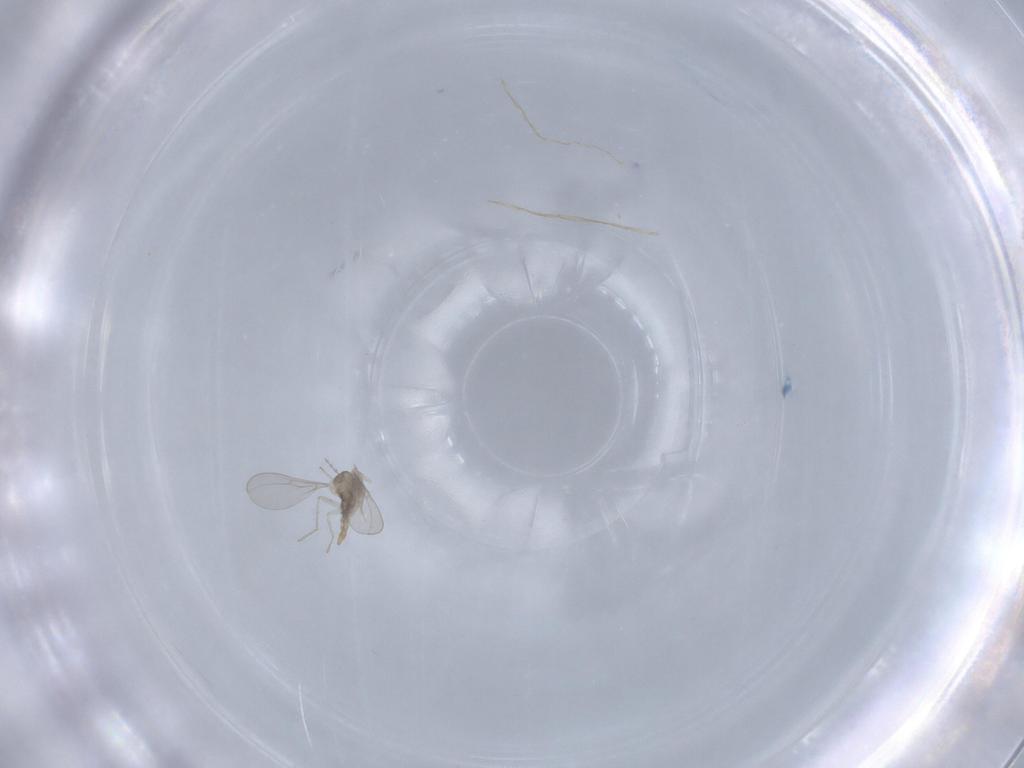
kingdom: Animalia
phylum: Arthropoda
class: Insecta
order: Diptera
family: Cecidomyiidae
